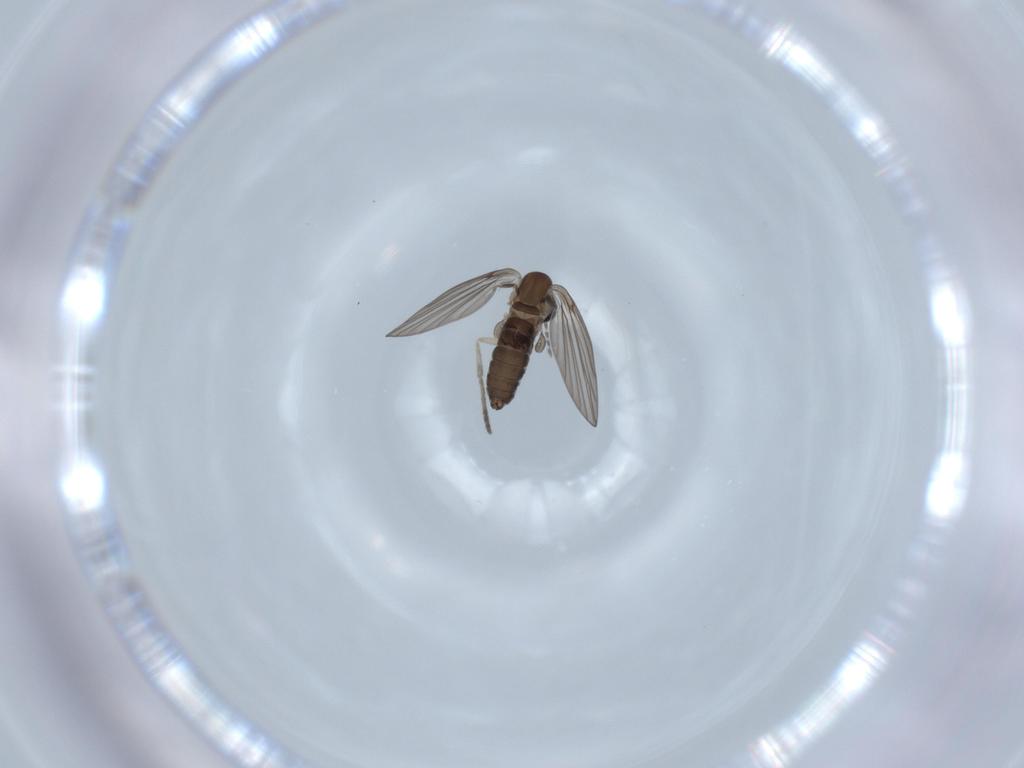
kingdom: Animalia
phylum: Arthropoda
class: Insecta
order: Diptera
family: Psychodidae
